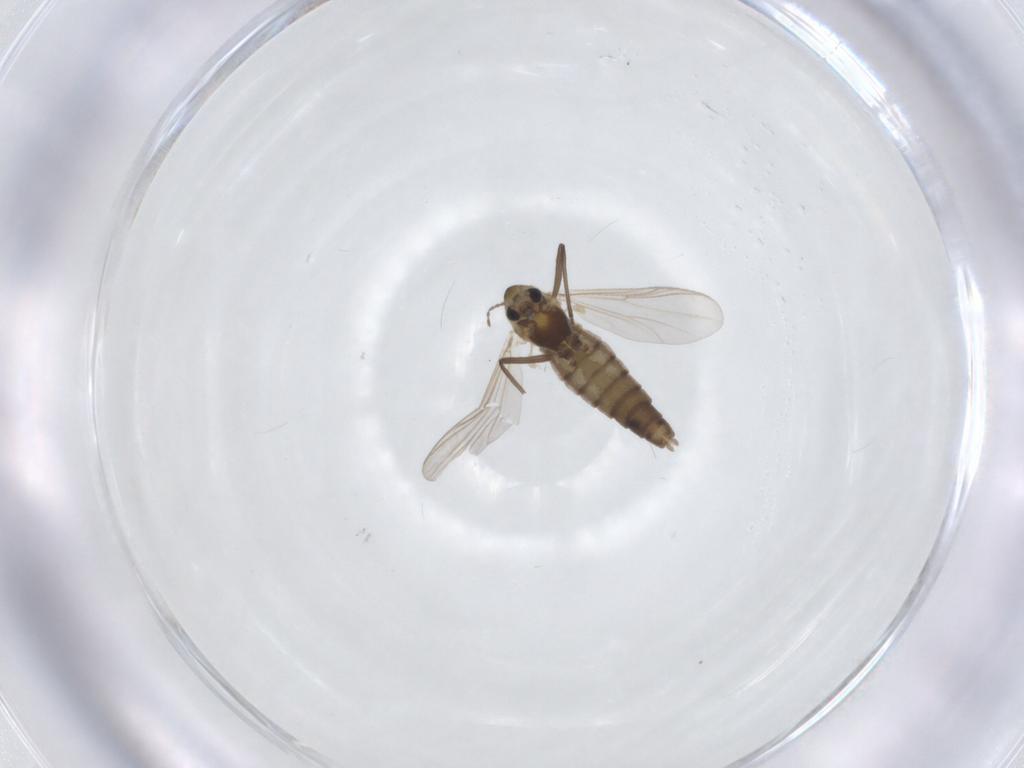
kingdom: Animalia
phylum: Arthropoda
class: Insecta
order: Diptera
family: Chironomidae
